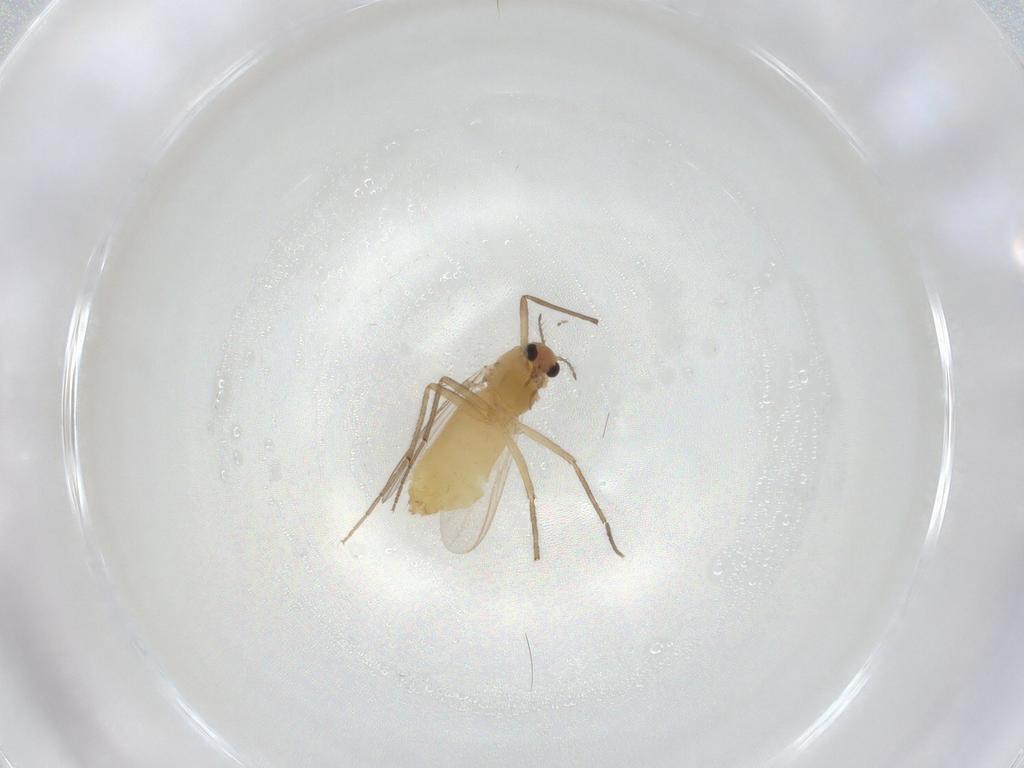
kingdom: Animalia
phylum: Arthropoda
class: Insecta
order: Diptera
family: Chironomidae
